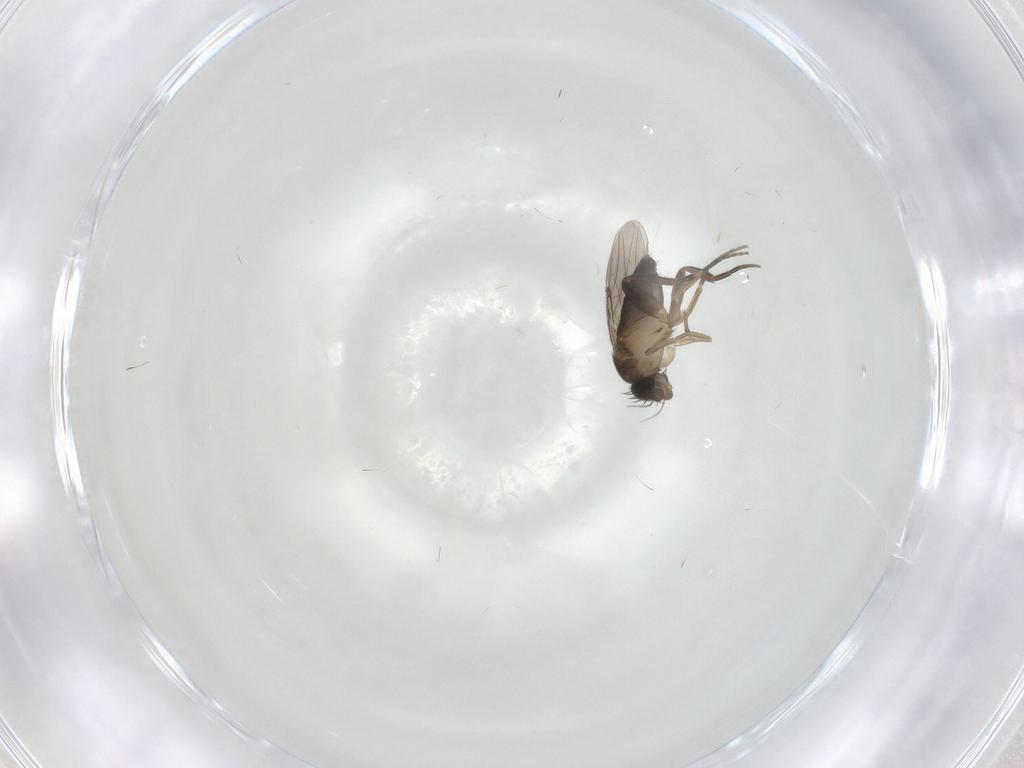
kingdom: Animalia
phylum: Arthropoda
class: Insecta
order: Diptera
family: Phoridae
